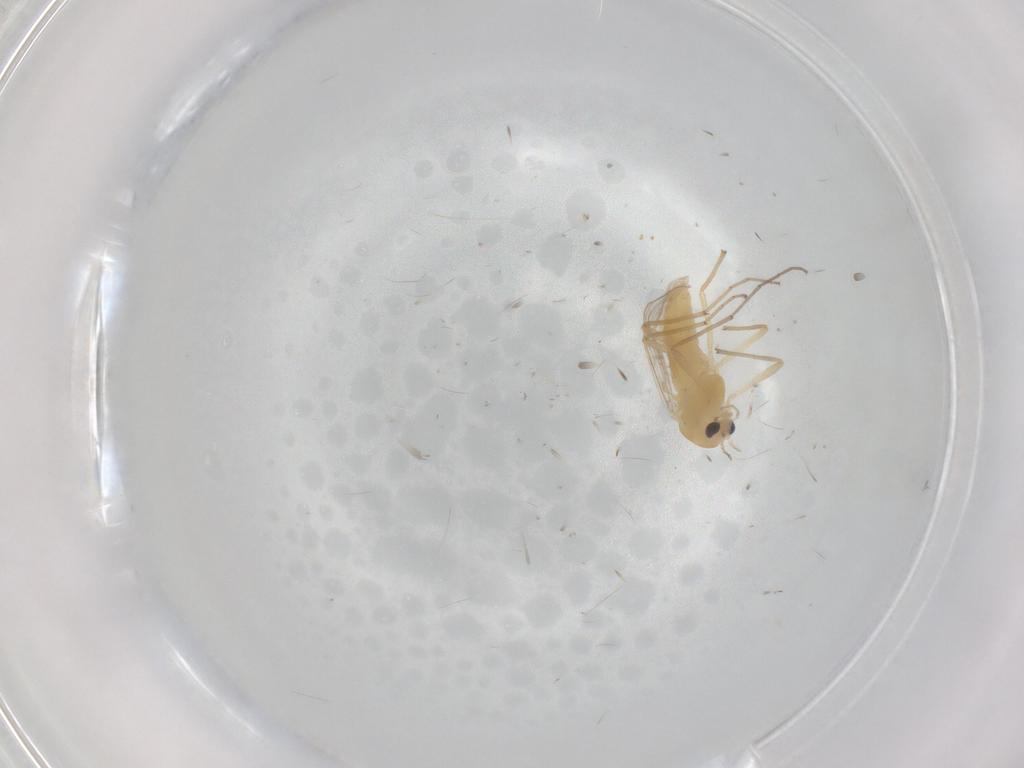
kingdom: Animalia
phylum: Arthropoda
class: Insecta
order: Diptera
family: Chironomidae
